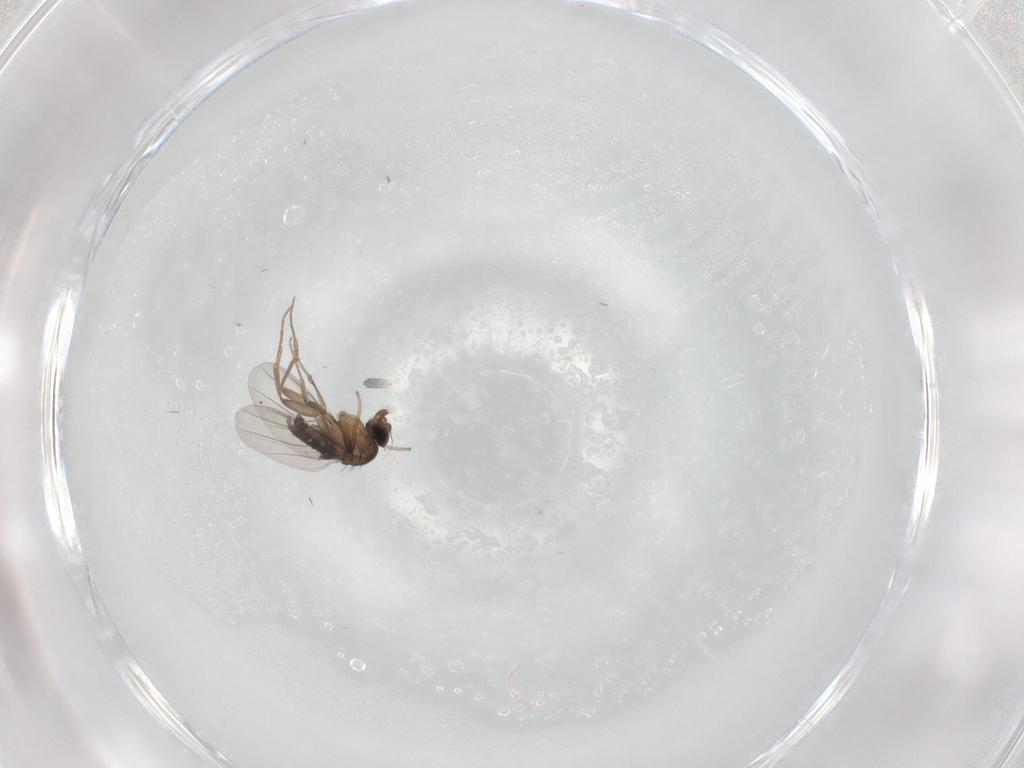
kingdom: Animalia
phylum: Arthropoda
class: Insecta
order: Diptera
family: Phoridae
